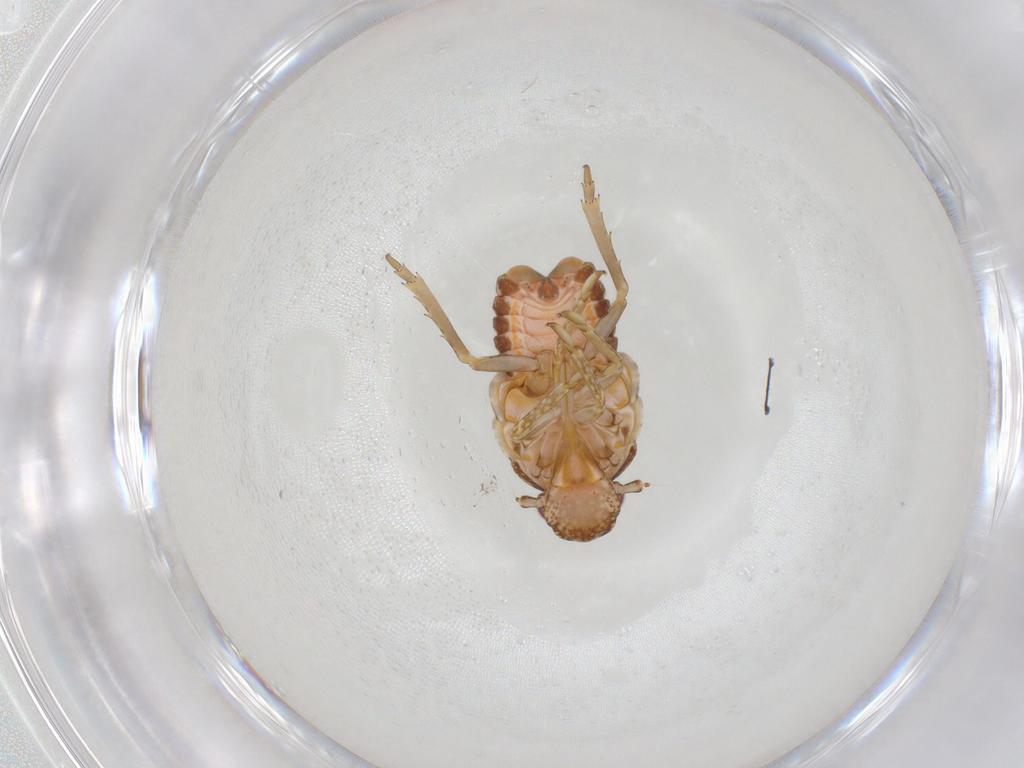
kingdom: Animalia
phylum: Arthropoda
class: Insecta
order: Hemiptera
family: Flatidae
